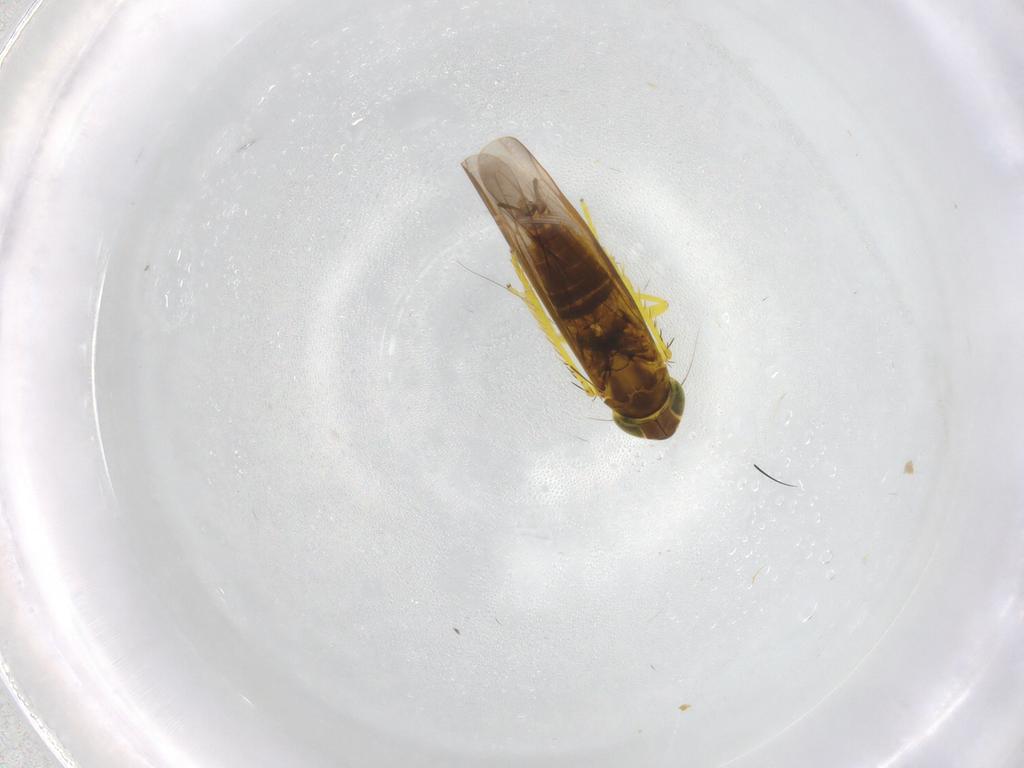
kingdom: Animalia
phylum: Arthropoda
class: Insecta
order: Hemiptera
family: Cicadellidae
